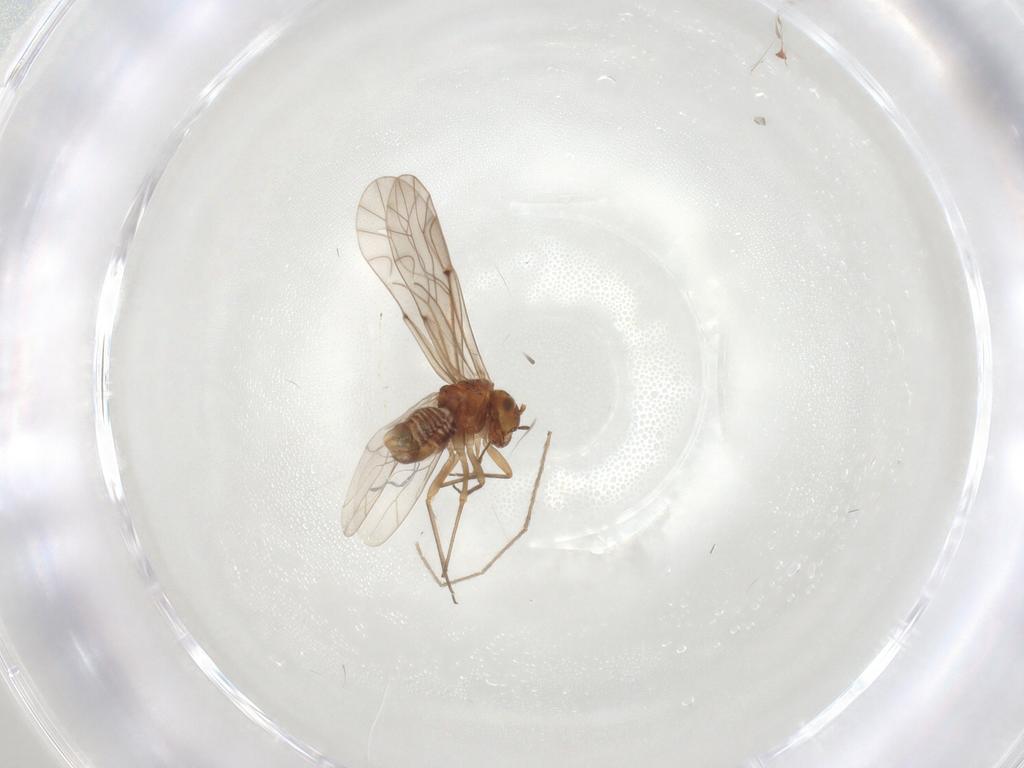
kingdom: Animalia
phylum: Arthropoda
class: Insecta
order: Psocodea
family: Lachesillidae
